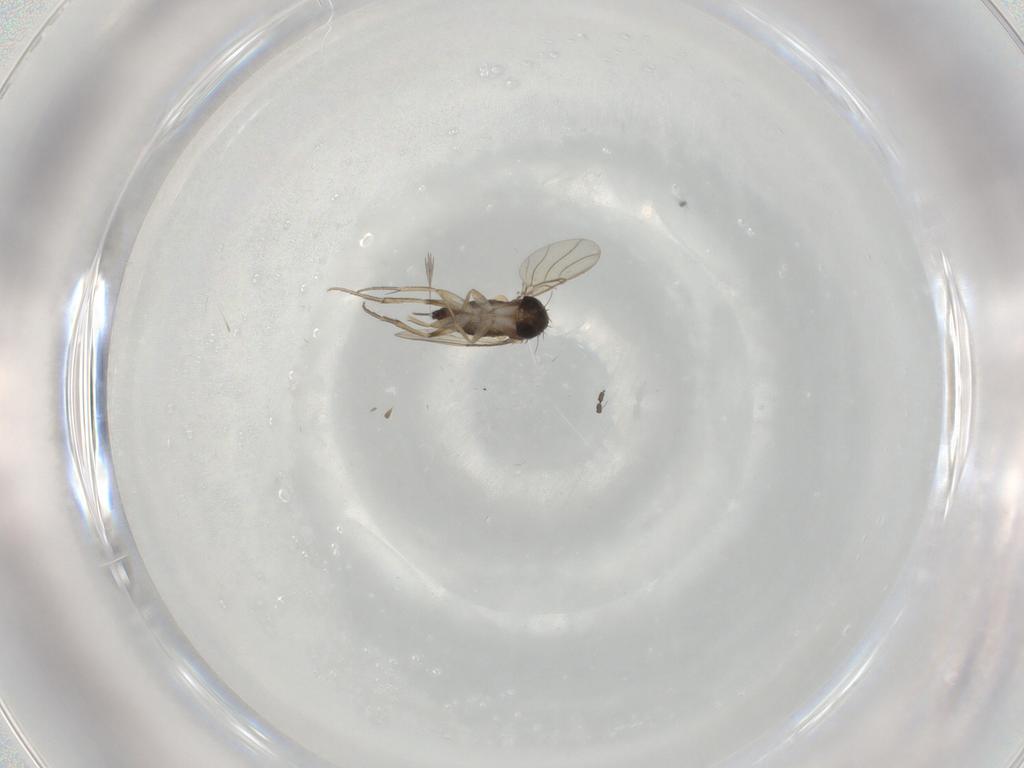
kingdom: Animalia
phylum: Arthropoda
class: Insecta
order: Diptera
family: Phoridae
